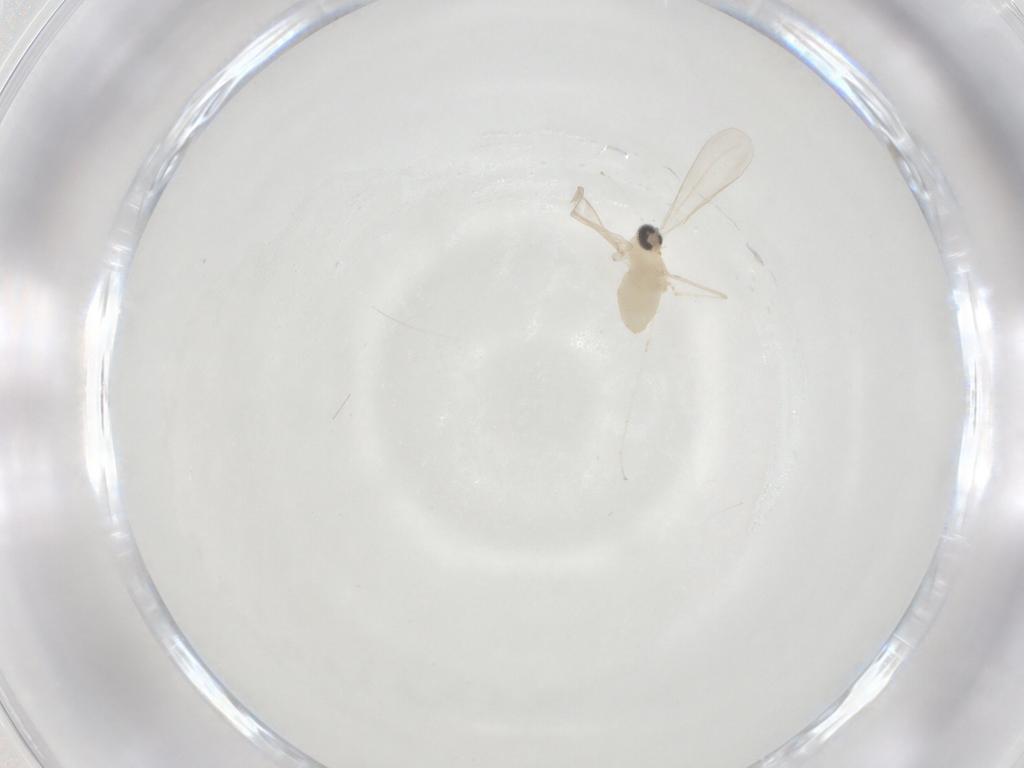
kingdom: Animalia
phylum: Arthropoda
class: Insecta
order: Diptera
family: Cecidomyiidae
